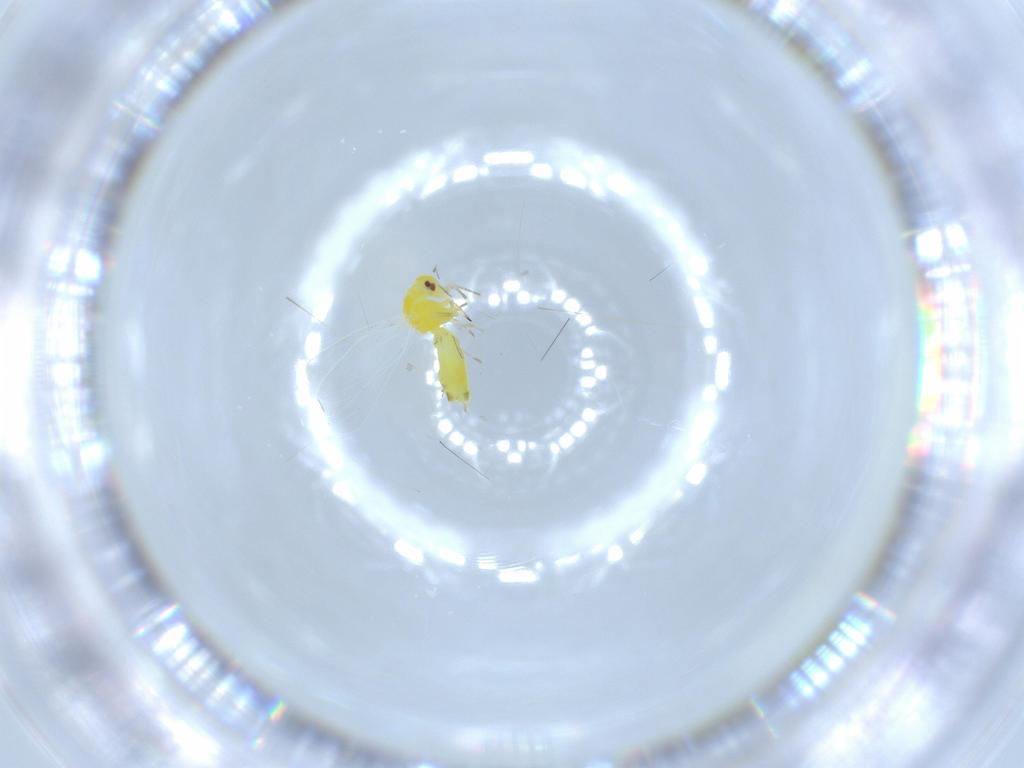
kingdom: Animalia
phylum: Arthropoda
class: Insecta
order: Hemiptera
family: Aleyrodidae
